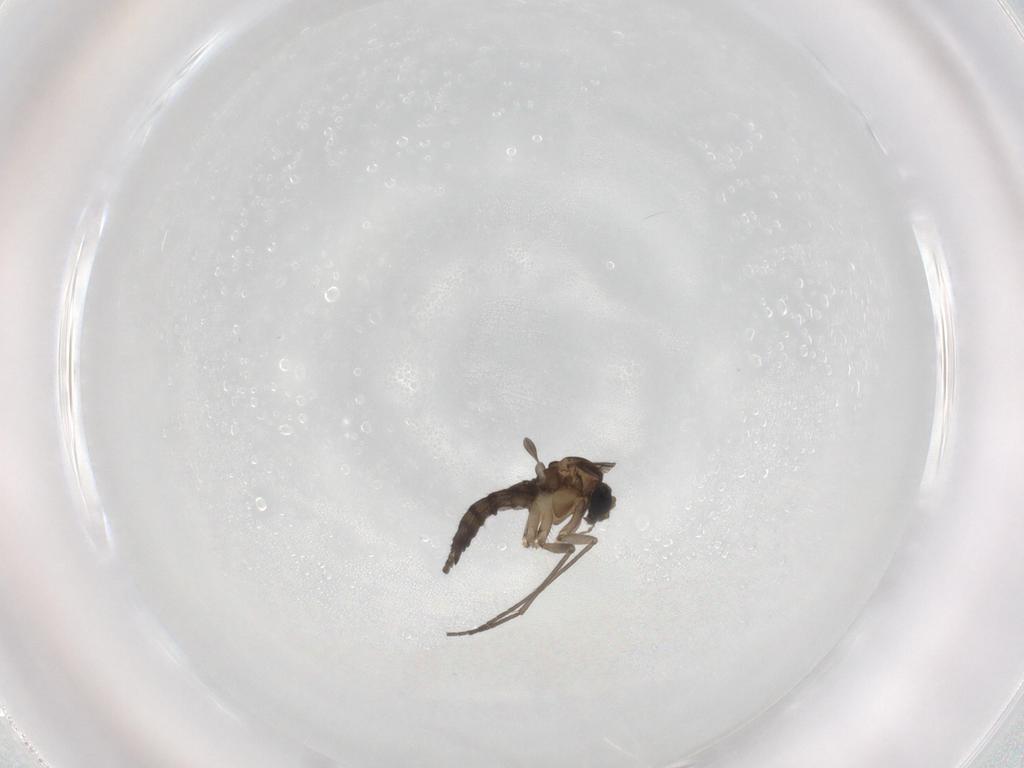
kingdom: Animalia
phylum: Arthropoda
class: Insecta
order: Diptera
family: Sciaridae
